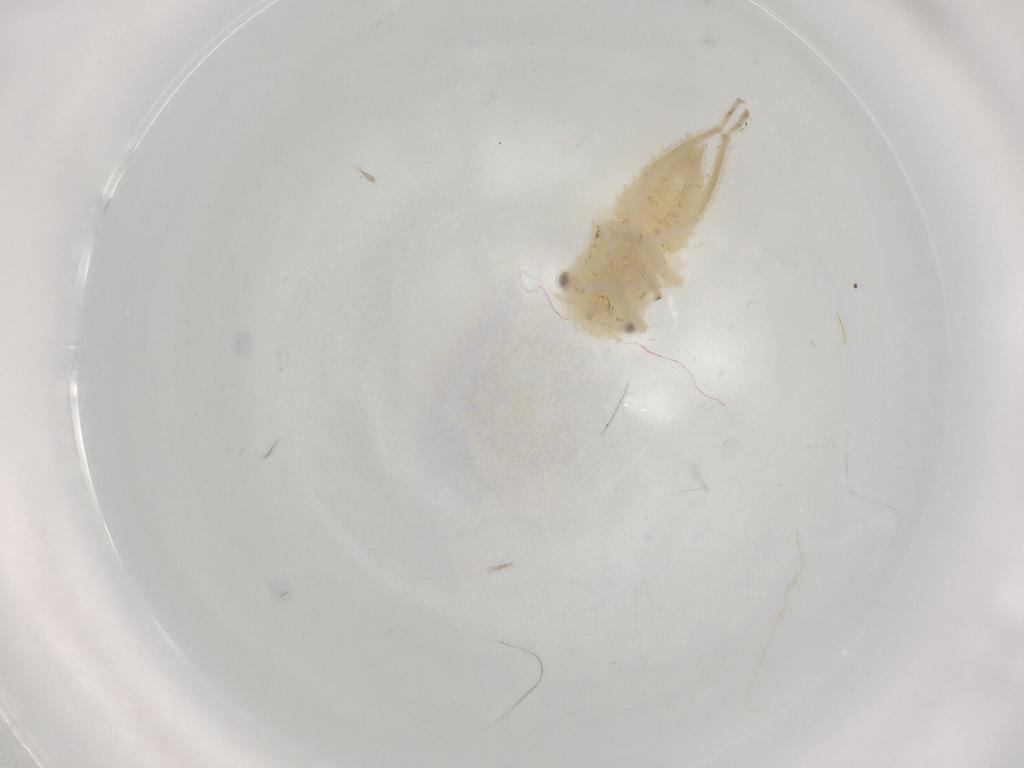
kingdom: Animalia
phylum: Arthropoda
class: Insecta
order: Hemiptera
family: Cicadellidae
